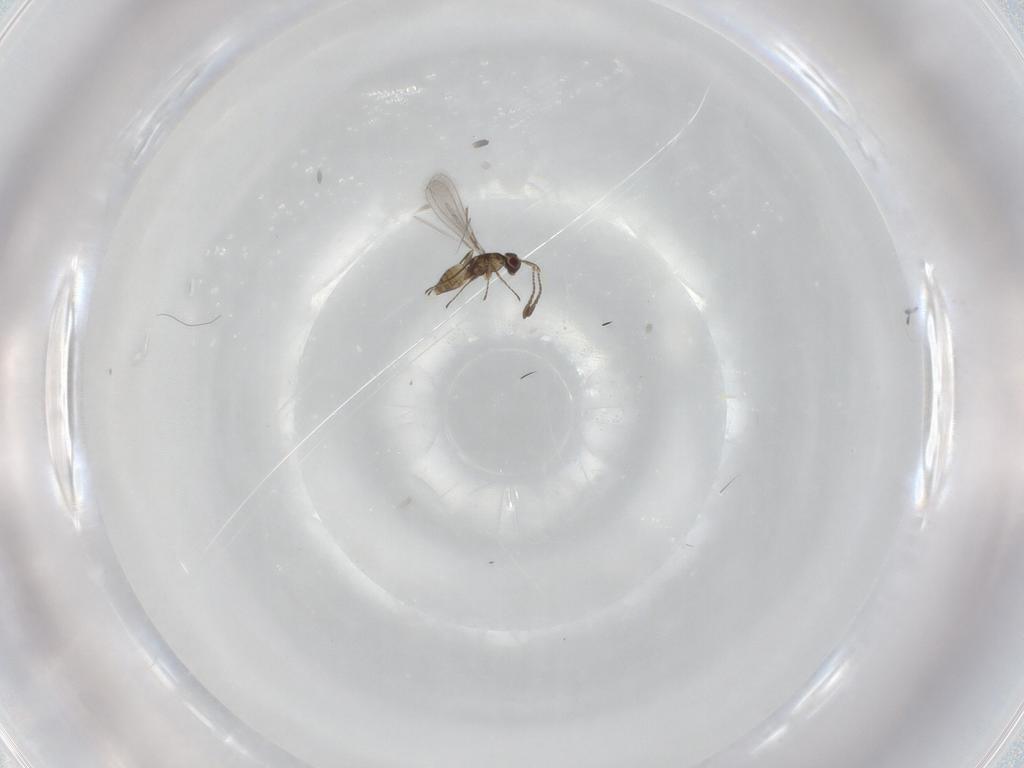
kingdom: Animalia
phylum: Arthropoda
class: Insecta
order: Hymenoptera
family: Mymaridae
